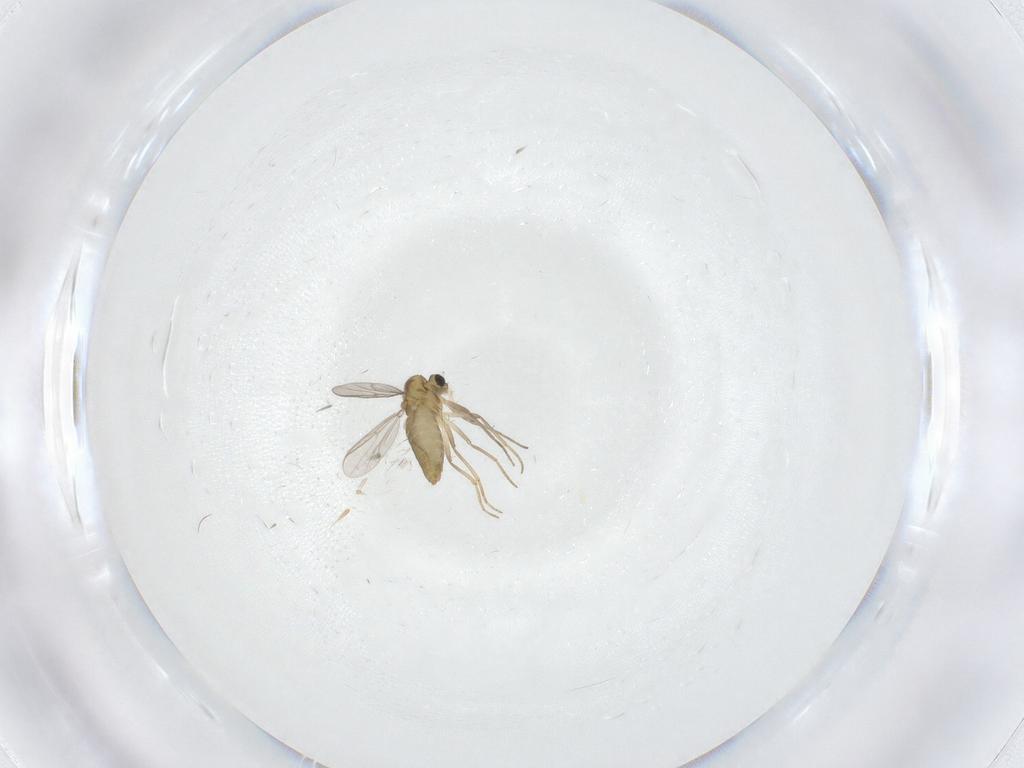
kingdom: Animalia
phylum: Arthropoda
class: Insecta
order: Diptera
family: Chironomidae
